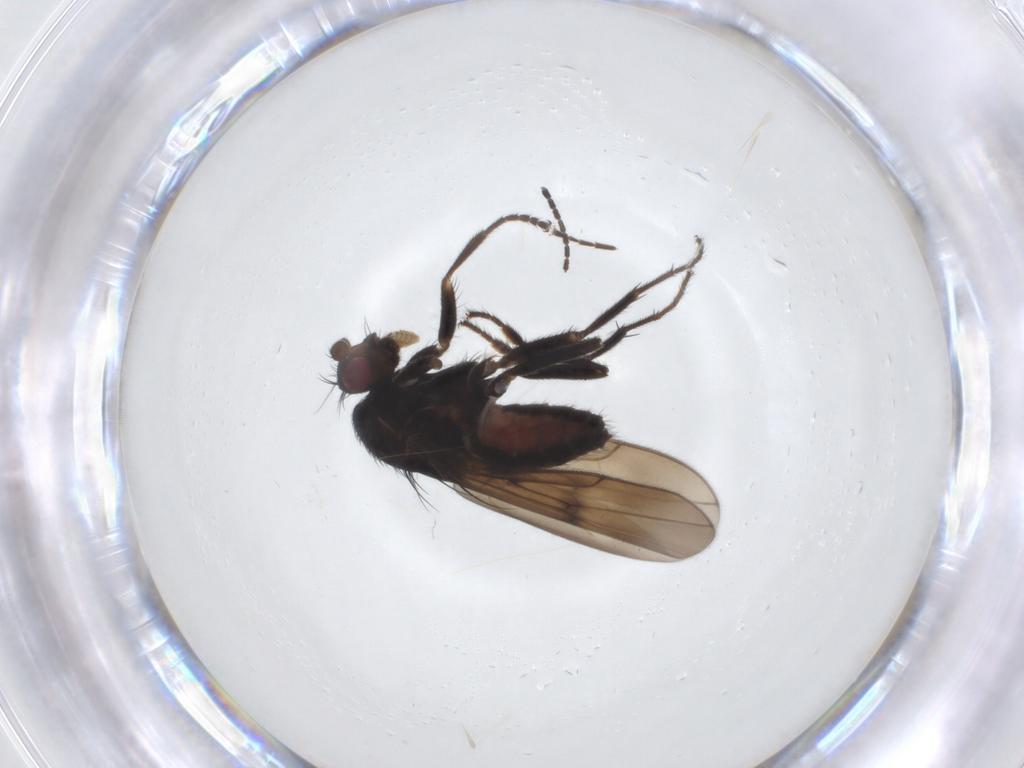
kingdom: Animalia
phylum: Arthropoda
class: Insecta
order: Diptera
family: Sphaeroceridae
